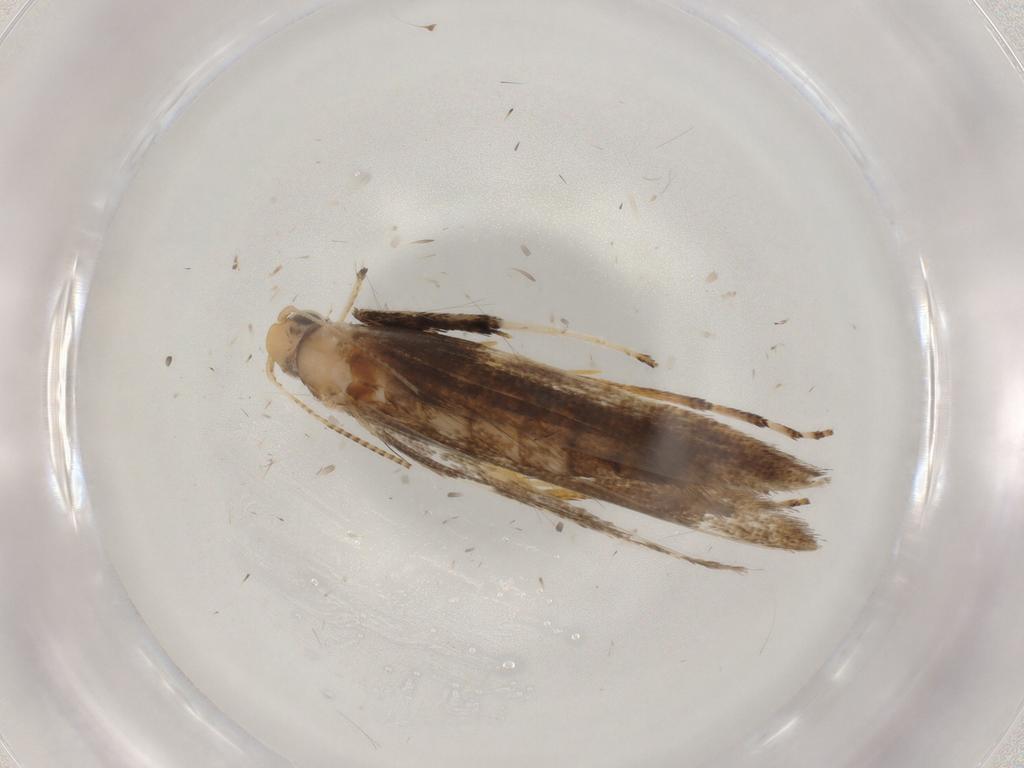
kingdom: Animalia
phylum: Arthropoda
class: Insecta
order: Lepidoptera
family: Gracillariidae
